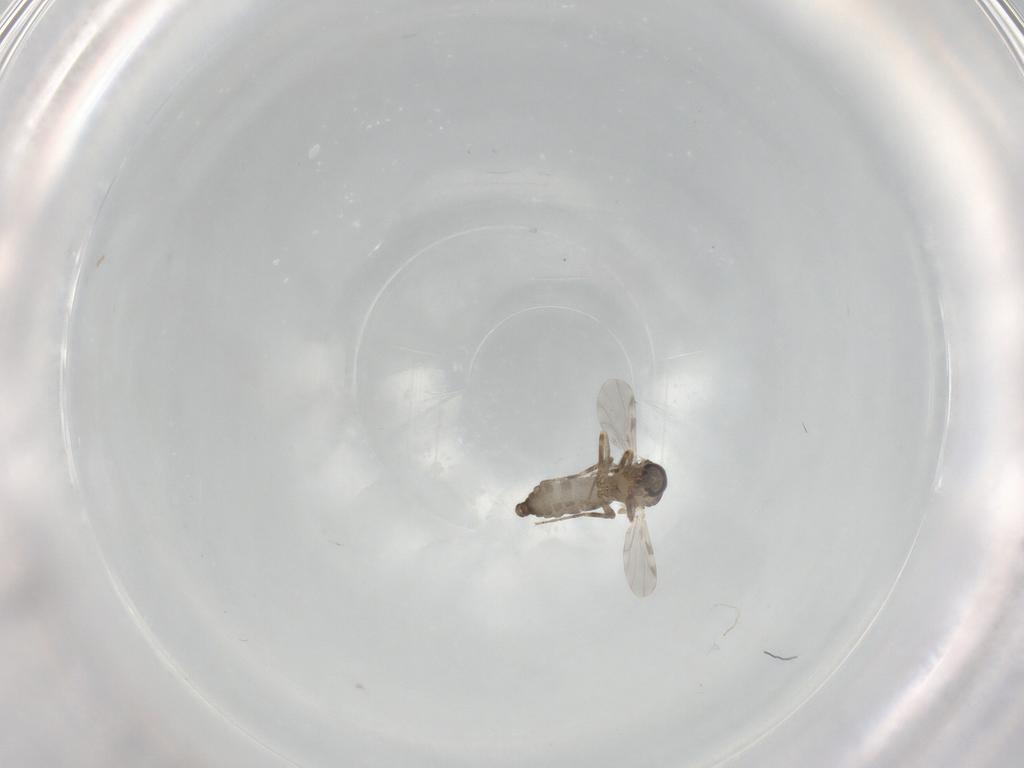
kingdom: Animalia
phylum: Arthropoda
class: Insecta
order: Diptera
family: Ceratopogonidae
